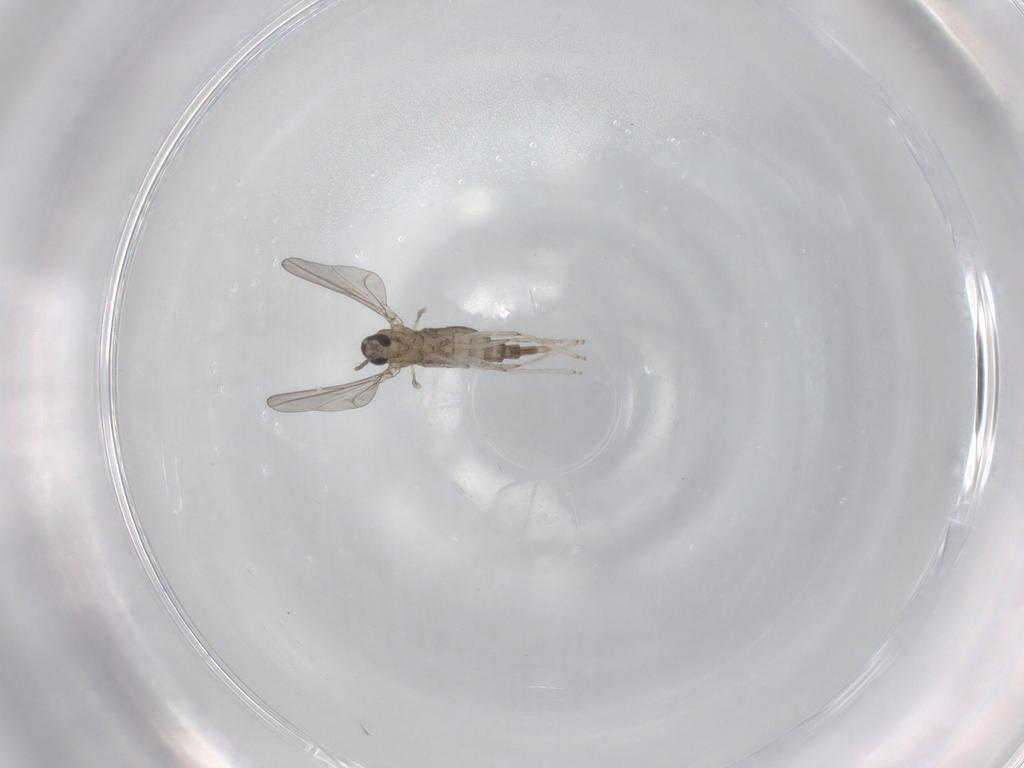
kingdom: Animalia
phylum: Arthropoda
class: Insecta
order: Diptera
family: Cecidomyiidae
